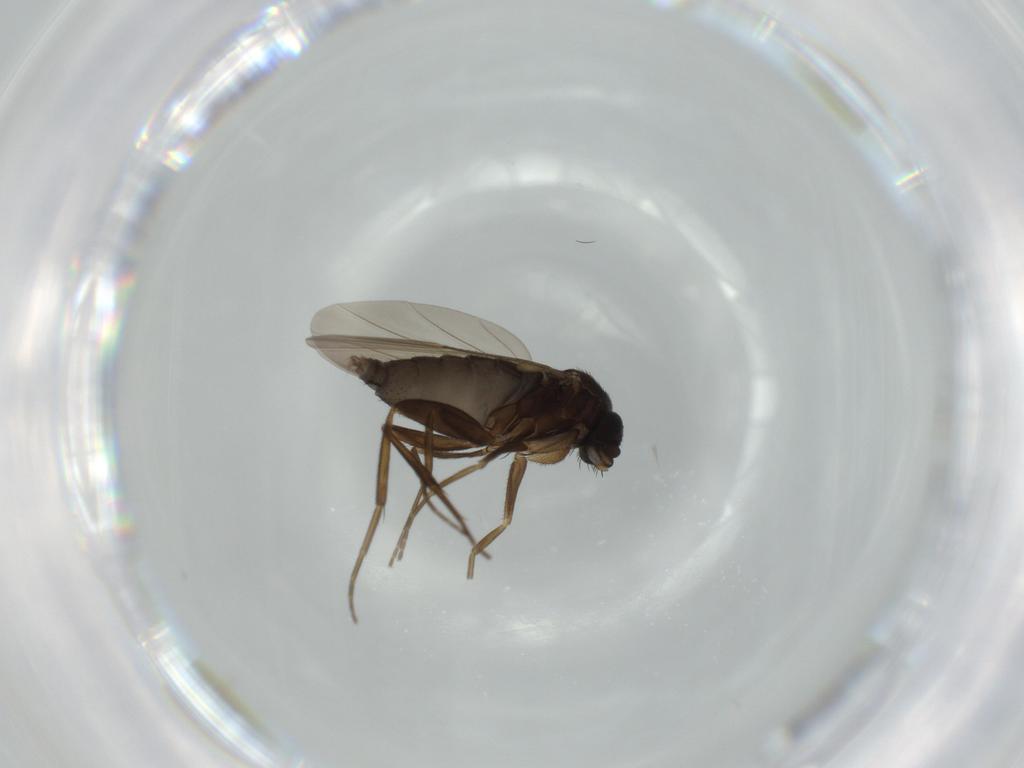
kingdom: Animalia
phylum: Arthropoda
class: Insecta
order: Diptera
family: Phoridae
